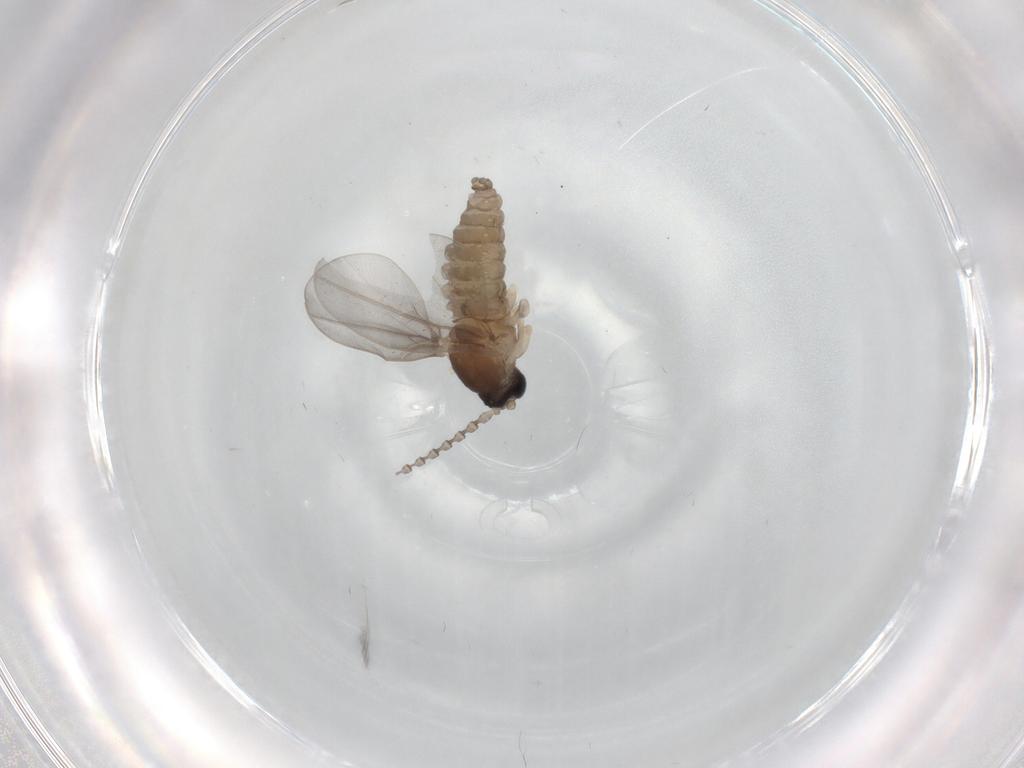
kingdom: Animalia
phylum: Arthropoda
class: Insecta
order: Diptera
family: Cecidomyiidae
